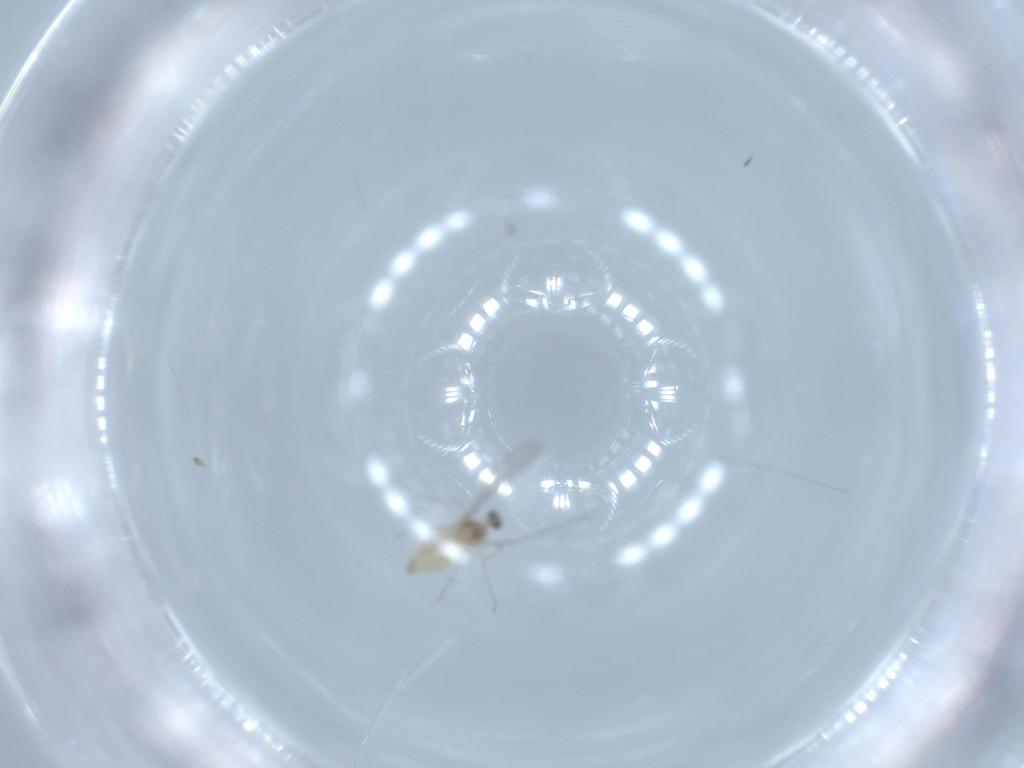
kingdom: Animalia
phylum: Arthropoda
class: Insecta
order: Diptera
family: Cecidomyiidae
